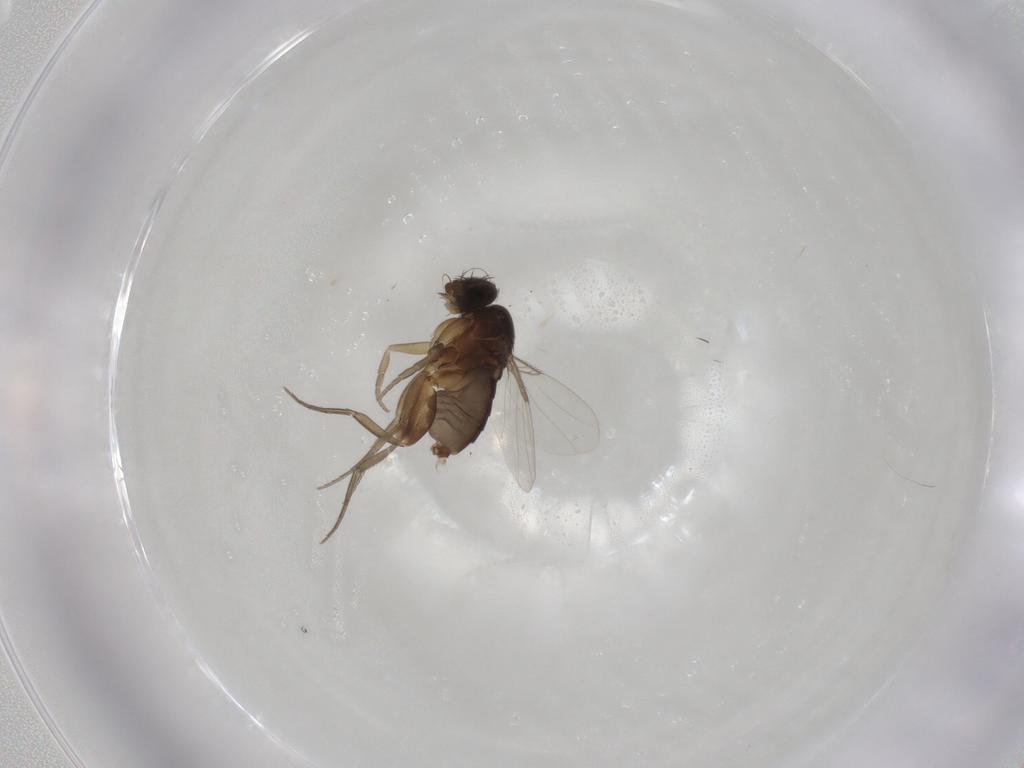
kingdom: Animalia
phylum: Arthropoda
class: Insecta
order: Diptera
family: Phoridae
